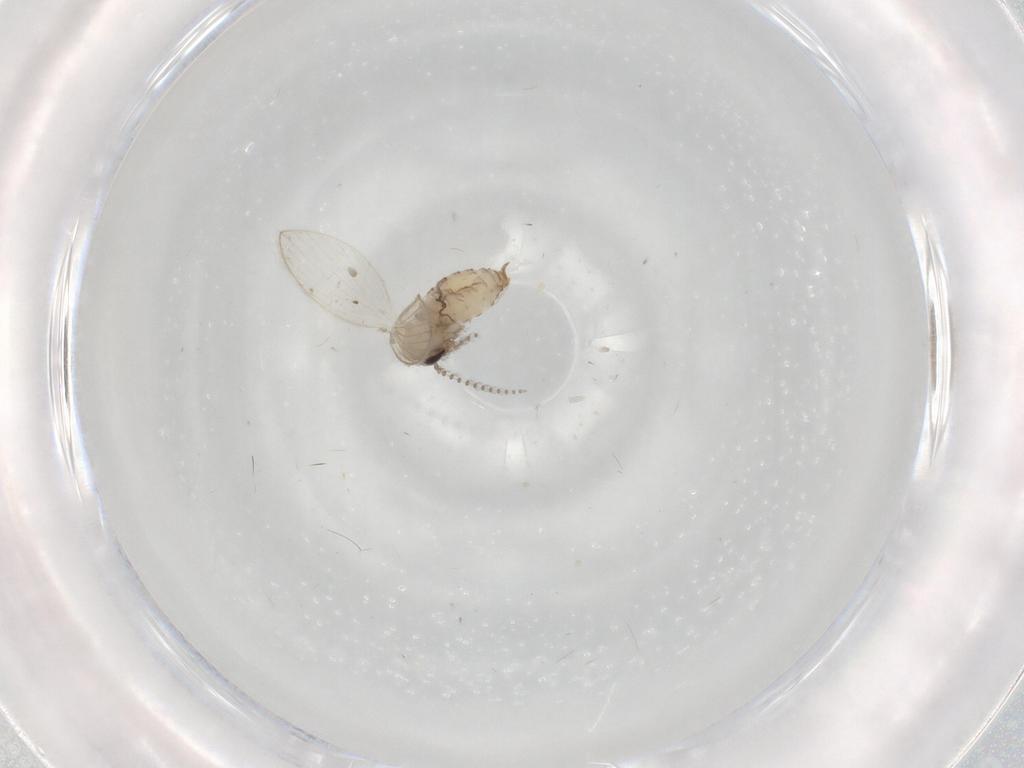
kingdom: Animalia
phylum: Arthropoda
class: Insecta
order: Diptera
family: Psychodidae
